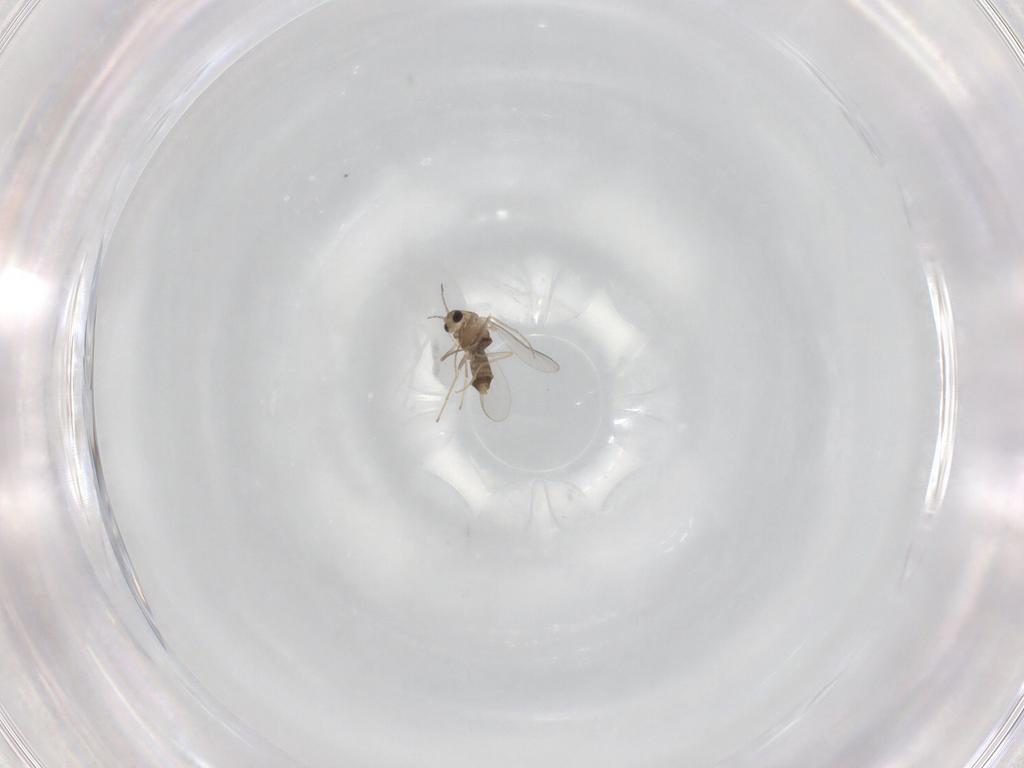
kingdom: Animalia
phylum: Arthropoda
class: Insecta
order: Diptera
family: Chironomidae
